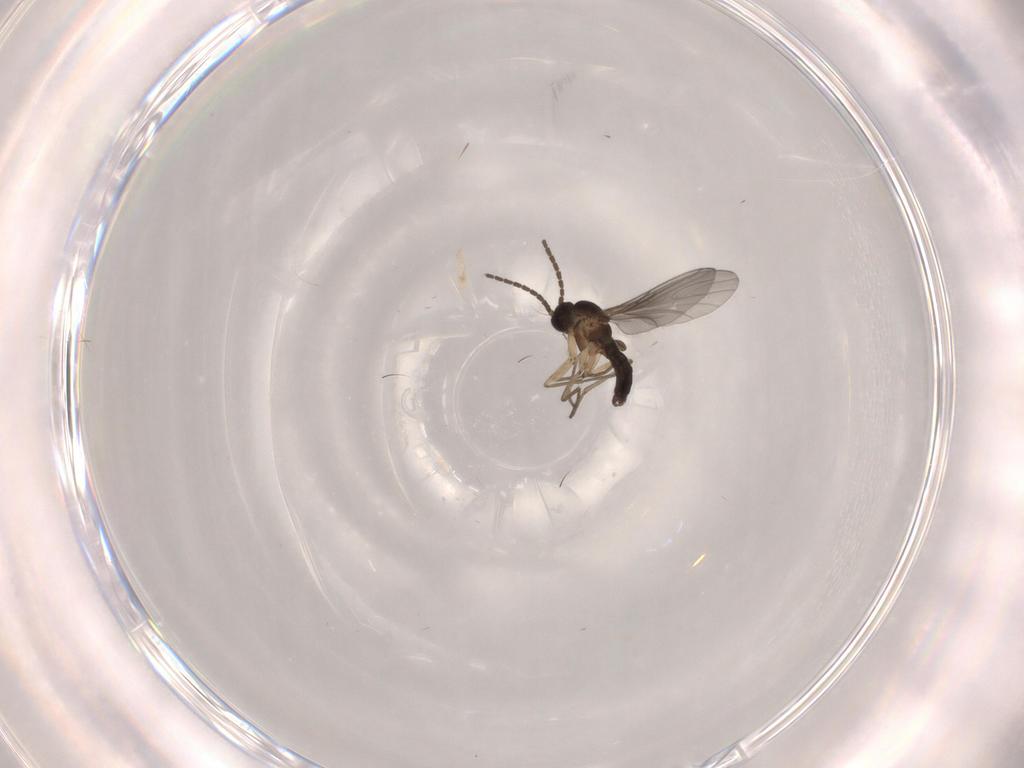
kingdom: Animalia
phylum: Arthropoda
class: Insecta
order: Diptera
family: Sciaridae
